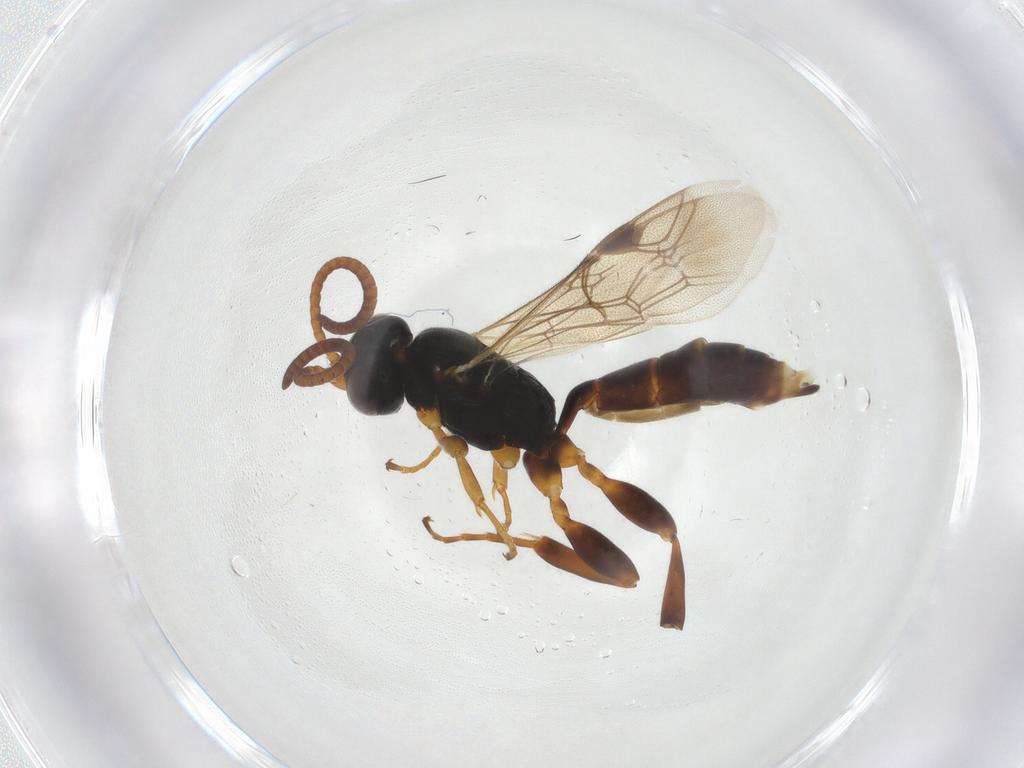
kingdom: Animalia
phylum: Arthropoda
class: Insecta
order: Hymenoptera
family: Ichneumonidae
